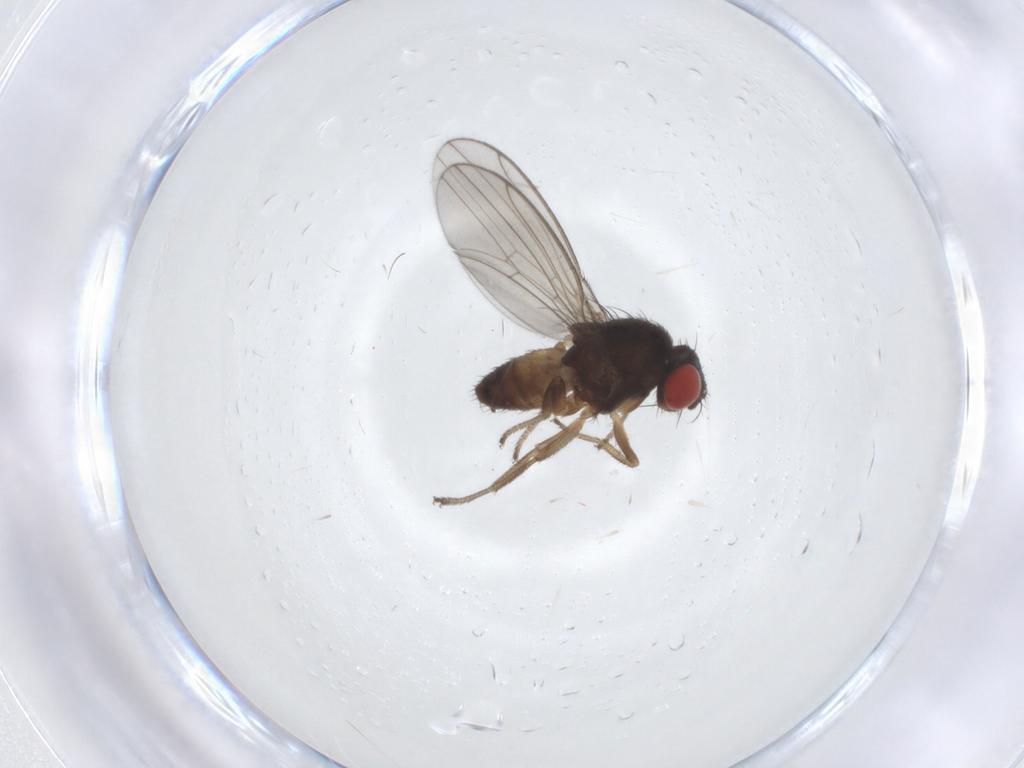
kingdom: Animalia
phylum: Arthropoda
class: Insecta
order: Diptera
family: Drosophilidae
